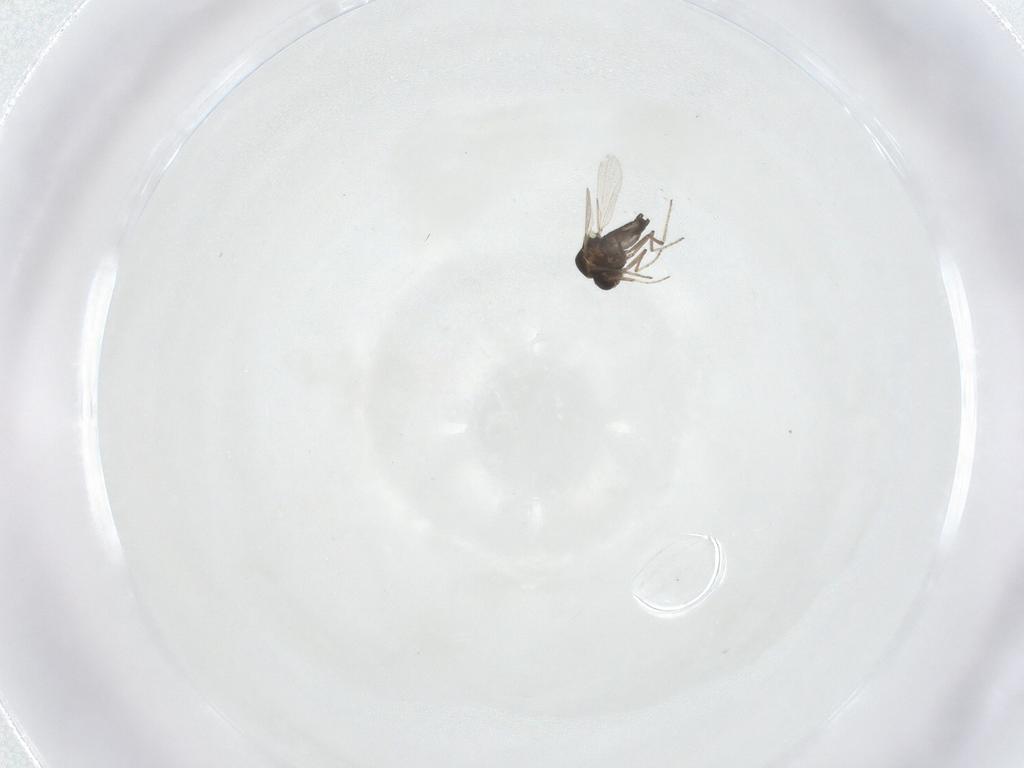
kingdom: Animalia
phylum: Arthropoda
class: Insecta
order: Diptera
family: Ceratopogonidae
